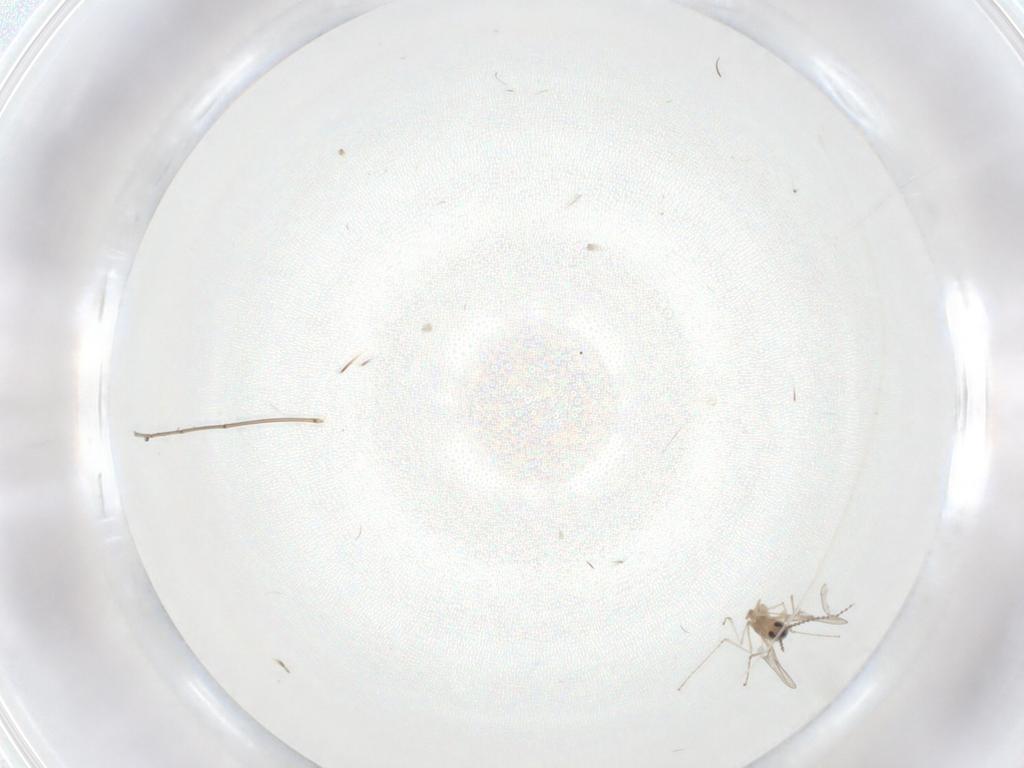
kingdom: Animalia
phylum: Arthropoda
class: Insecta
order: Diptera
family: Cecidomyiidae
